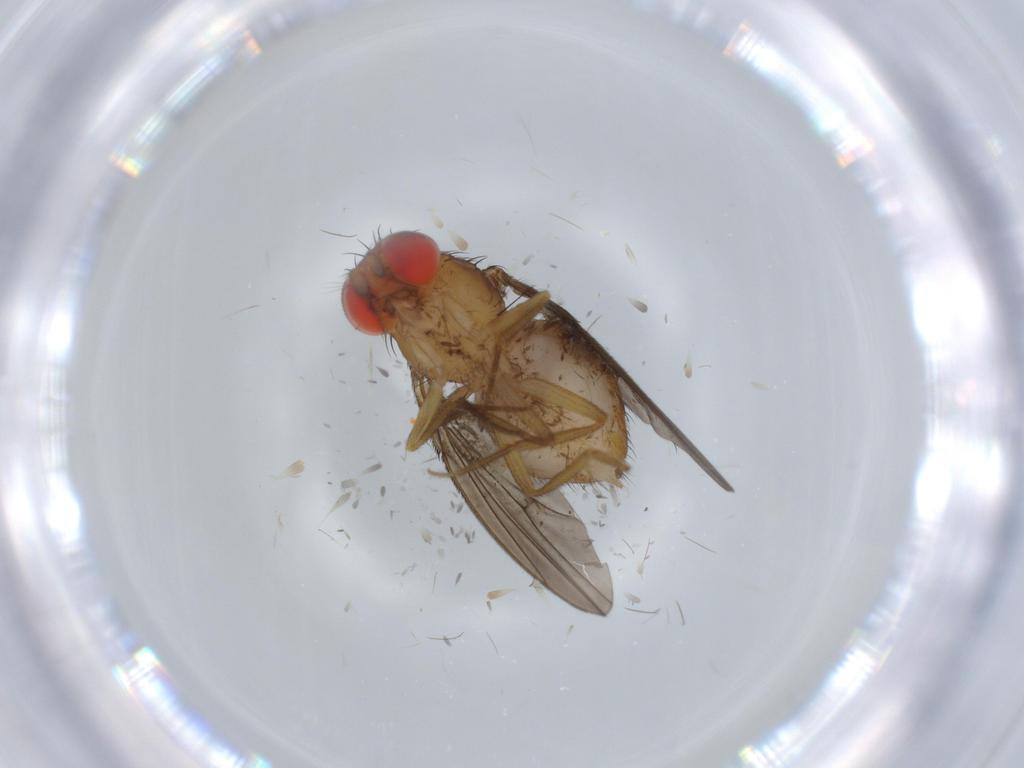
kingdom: Animalia
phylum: Arthropoda
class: Insecta
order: Diptera
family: Drosophilidae
